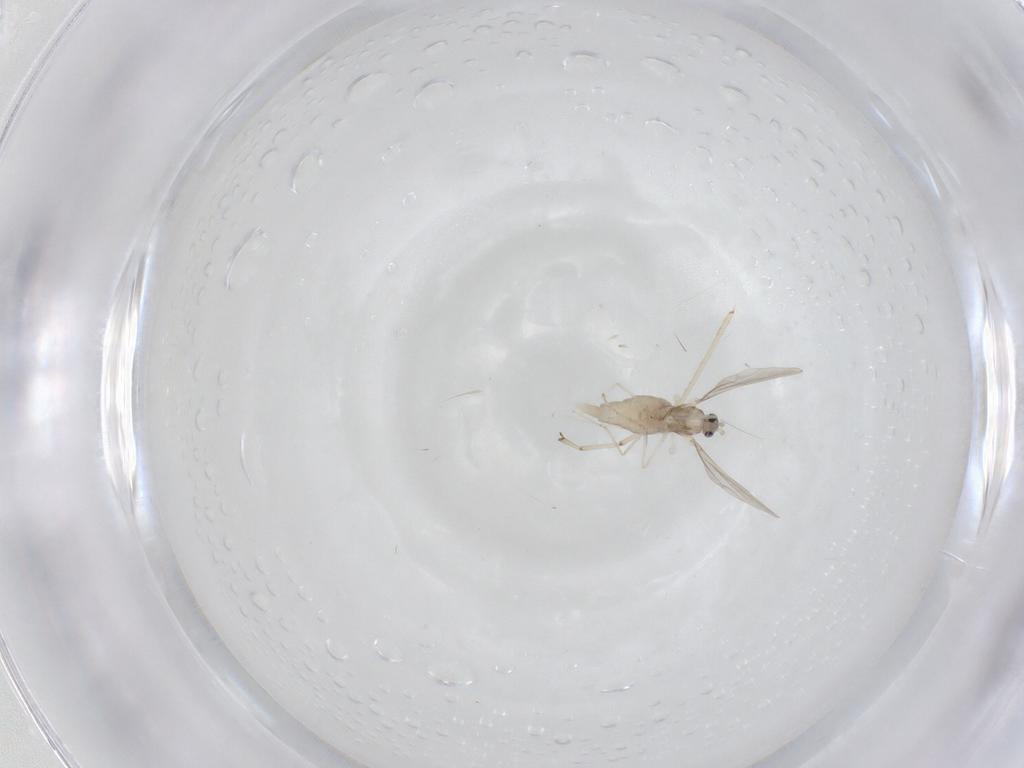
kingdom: Animalia
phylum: Arthropoda
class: Insecta
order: Diptera
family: Cecidomyiidae
